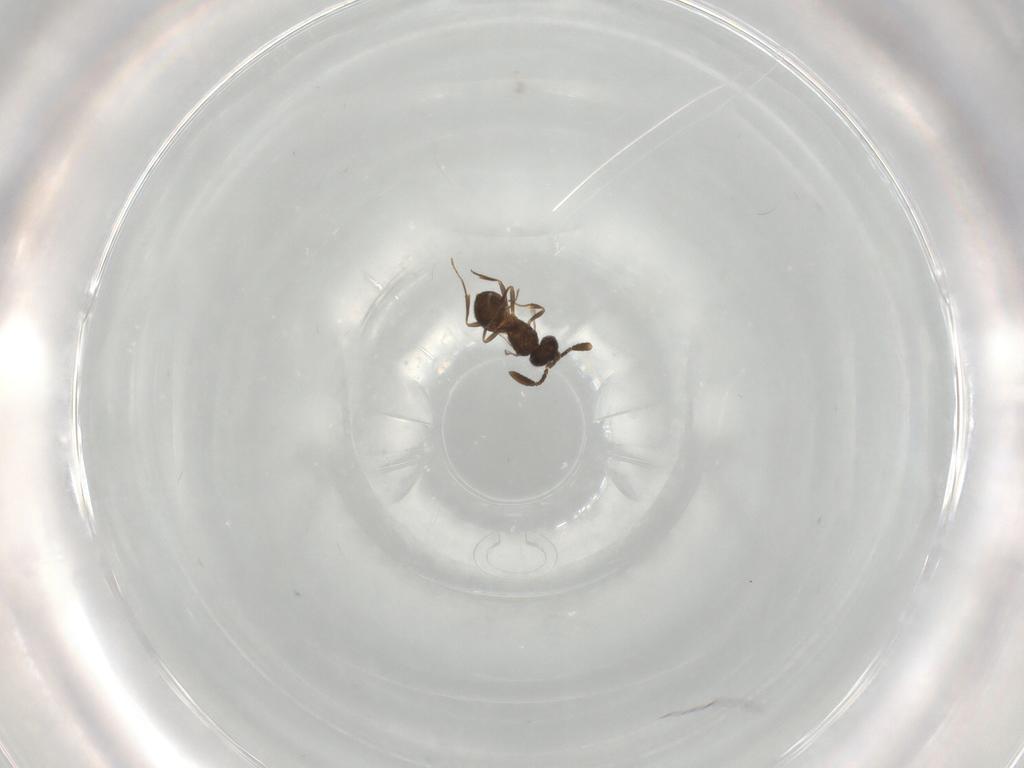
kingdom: Animalia
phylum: Arthropoda
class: Insecta
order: Hymenoptera
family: Scelionidae
